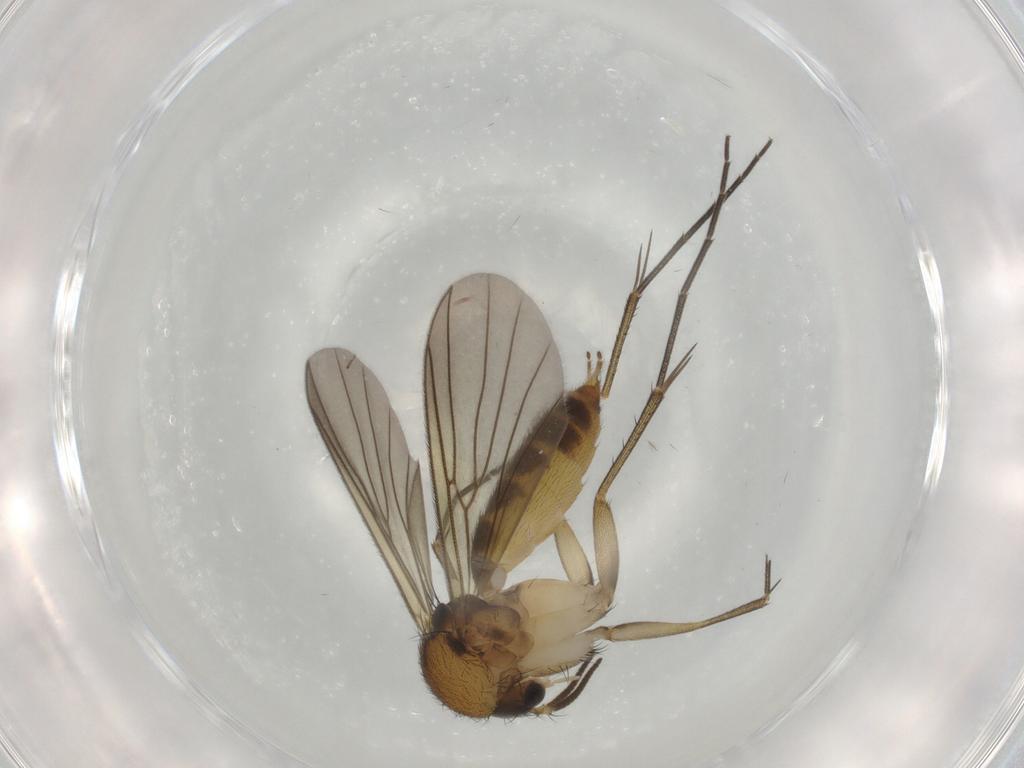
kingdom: Animalia
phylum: Arthropoda
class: Insecta
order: Diptera
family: Mycetophilidae
